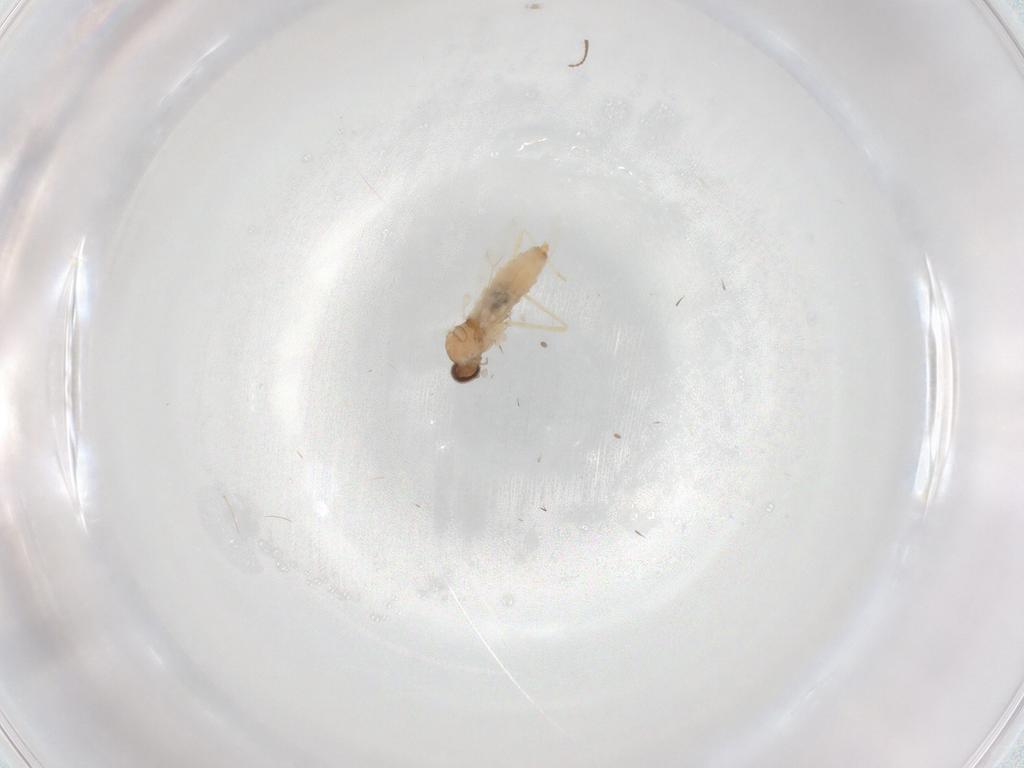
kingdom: Animalia
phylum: Arthropoda
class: Insecta
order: Diptera
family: Cecidomyiidae
